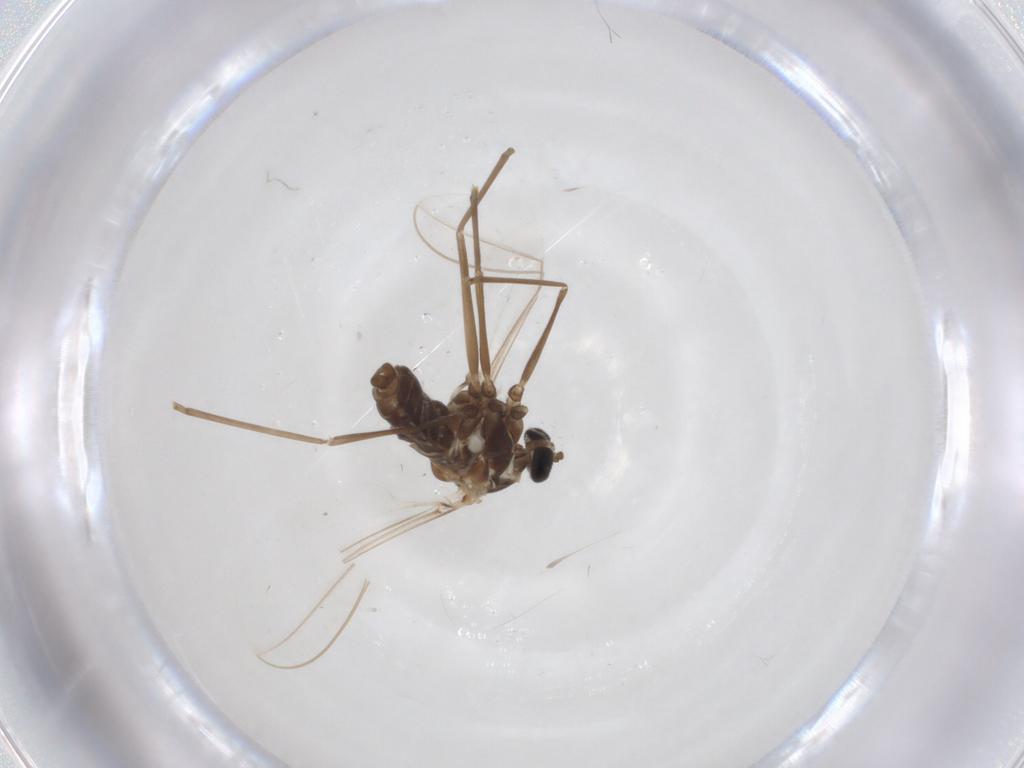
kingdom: Animalia
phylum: Arthropoda
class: Insecta
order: Diptera
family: Cecidomyiidae
